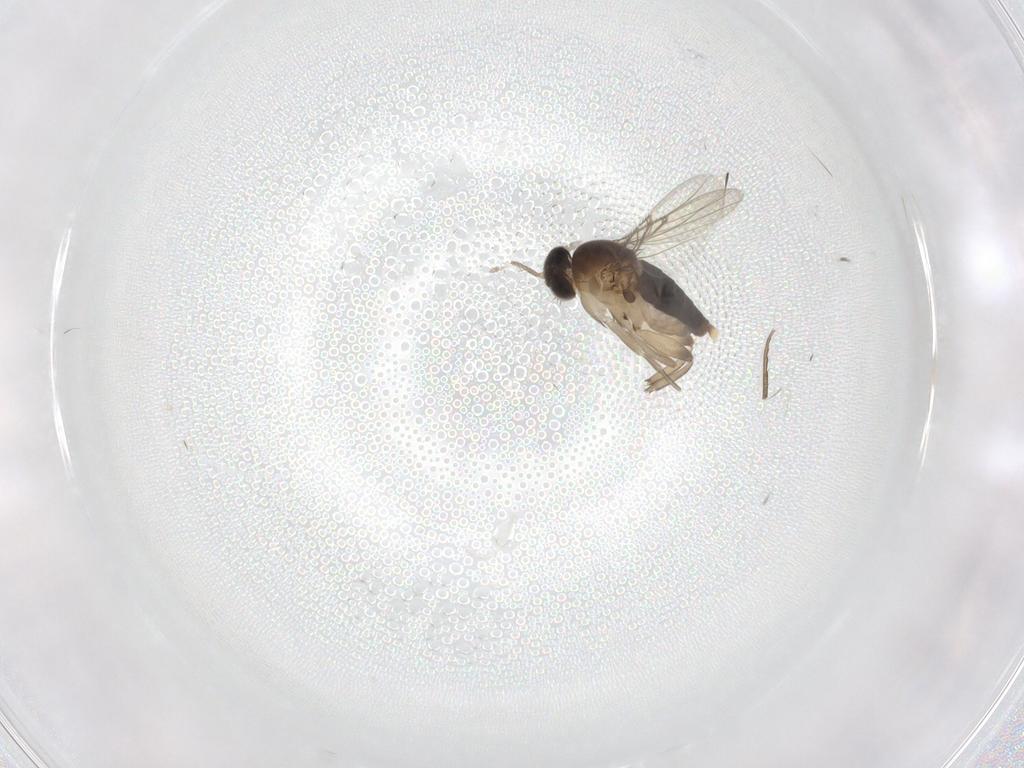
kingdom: Animalia
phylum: Arthropoda
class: Insecta
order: Diptera
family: Phoridae
